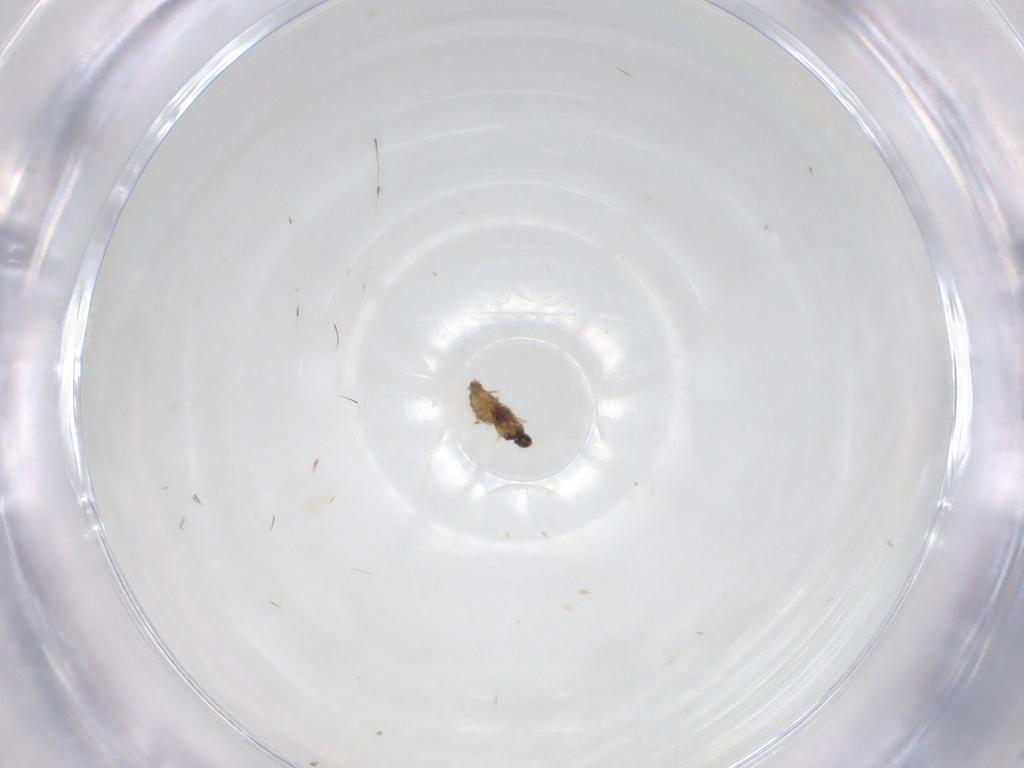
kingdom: Animalia
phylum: Arthropoda
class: Insecta
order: Diptera
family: Cecidomyiidae
